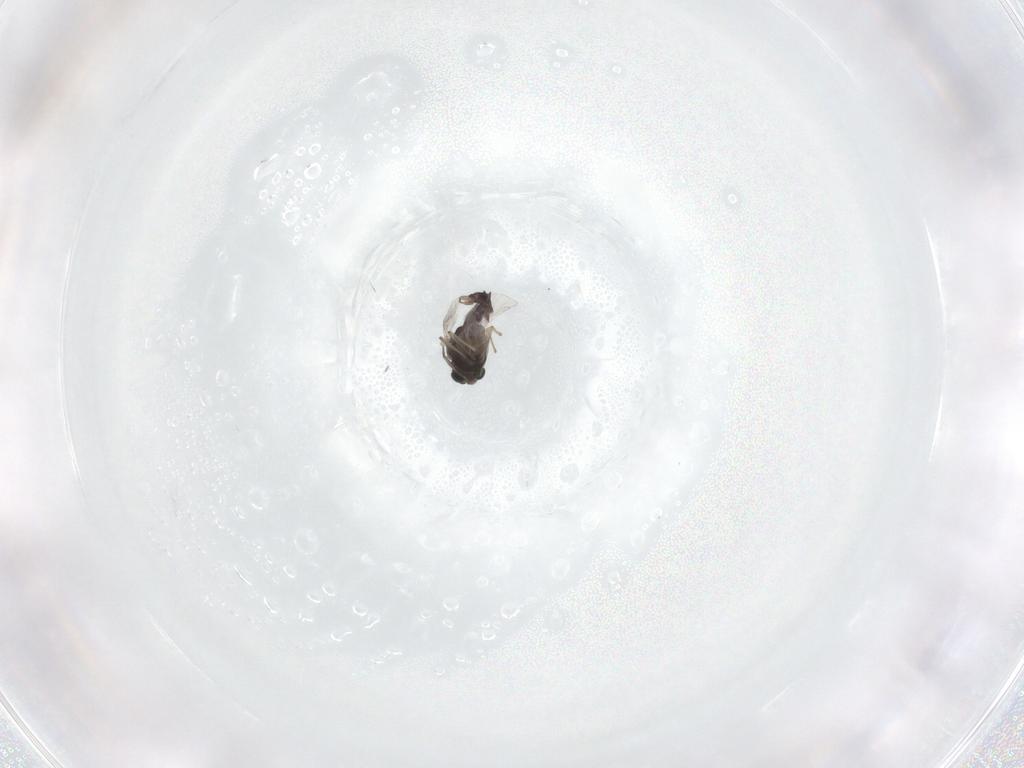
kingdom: Animalia
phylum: Arthropoda
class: Insecta
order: Diptera
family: Chironomidae
